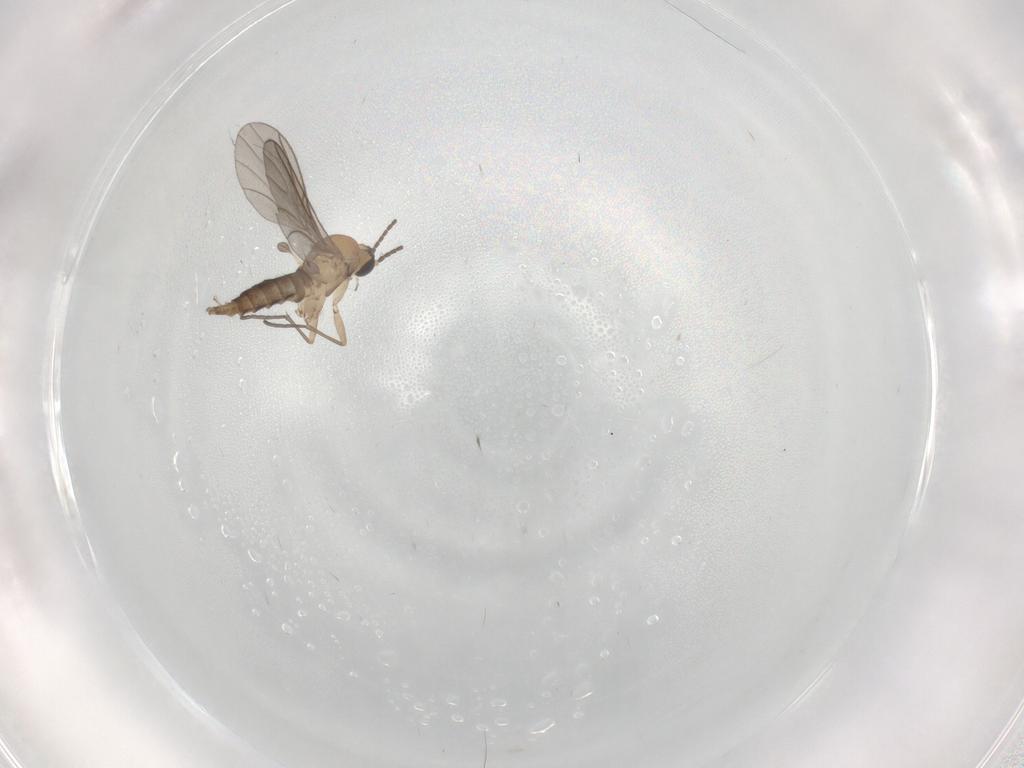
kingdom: Animalia
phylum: Arthropoda
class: Insecta
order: Diptera
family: Sciaridae
